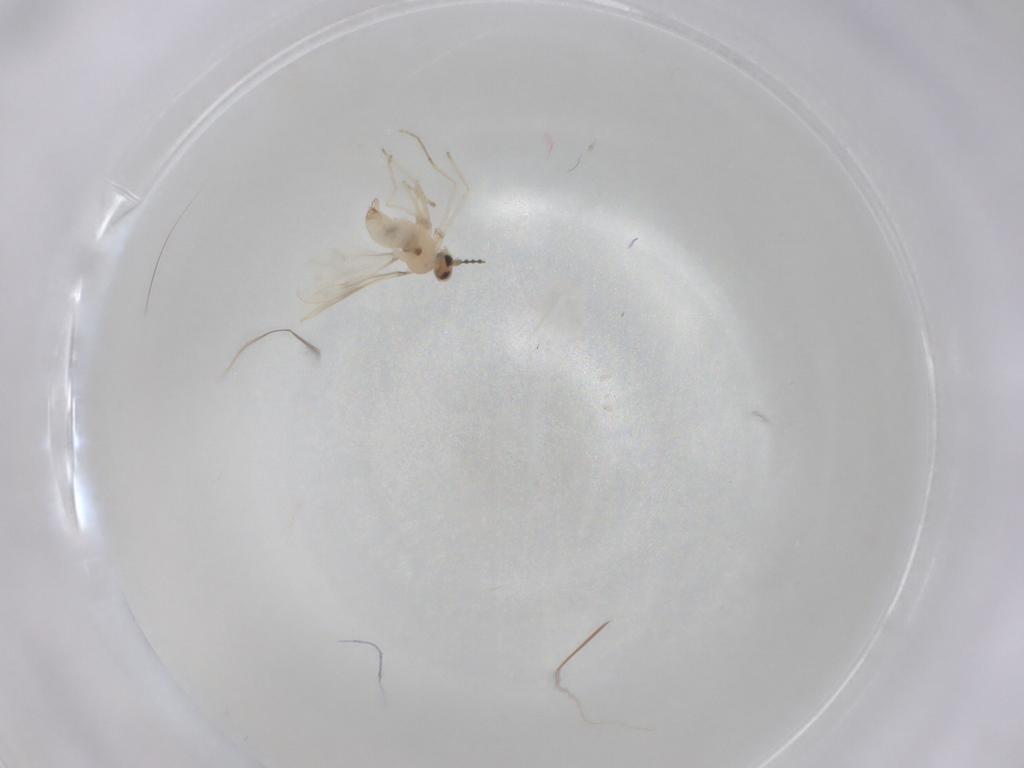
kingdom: Animalia
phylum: Arthropoda
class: Insecta
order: Diptera
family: Cecidomyiidae
